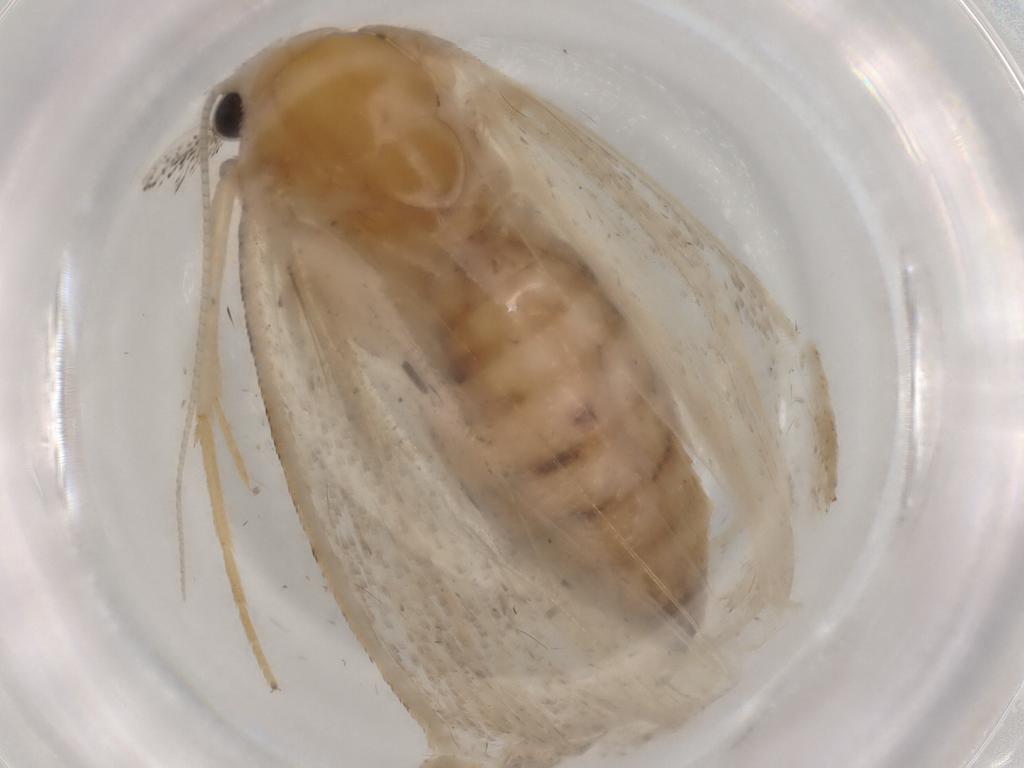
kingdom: Animalia
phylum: Arthropoda
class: Insecta
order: Lepidoptera
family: Nolidae
